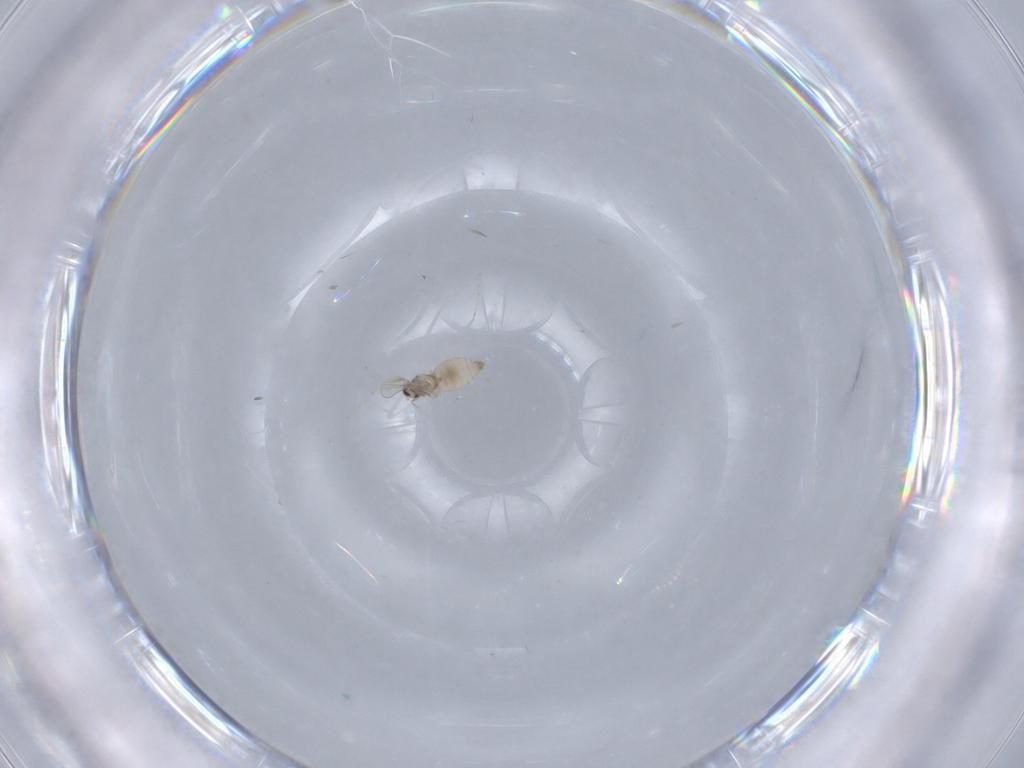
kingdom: Animalia
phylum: Arthropoda
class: Insecta
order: Diptera
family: Cecidomyiidae
